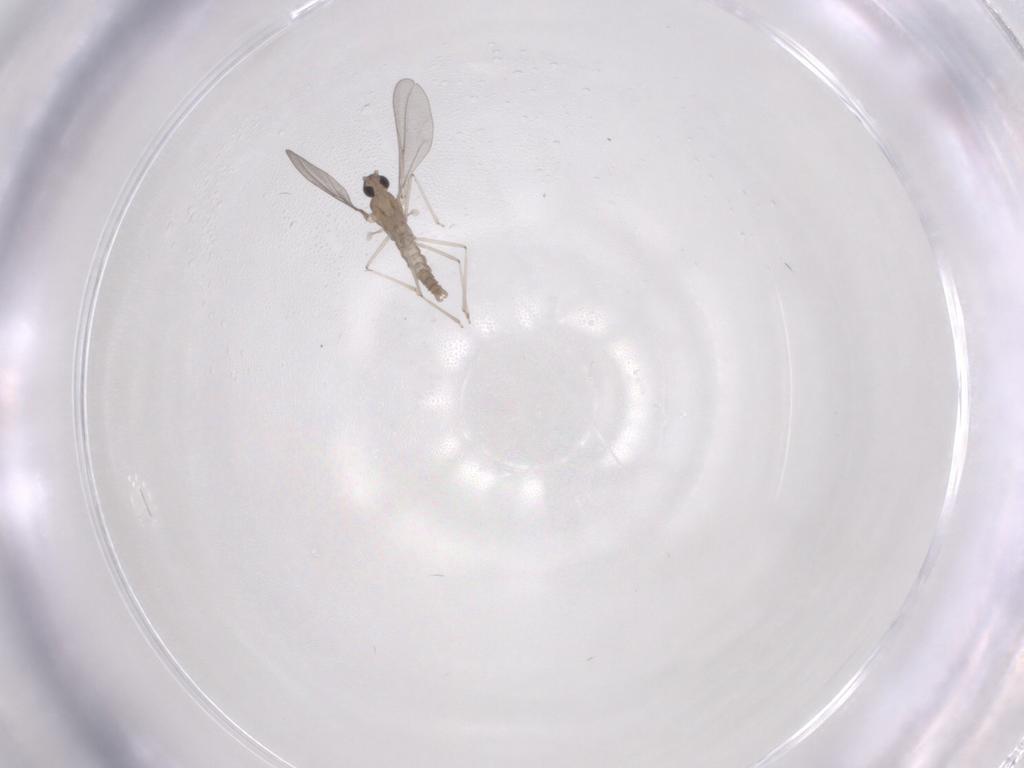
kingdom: Animalia
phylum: Arthropoda
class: Insecta
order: Diptera
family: Cecidomyiidae
